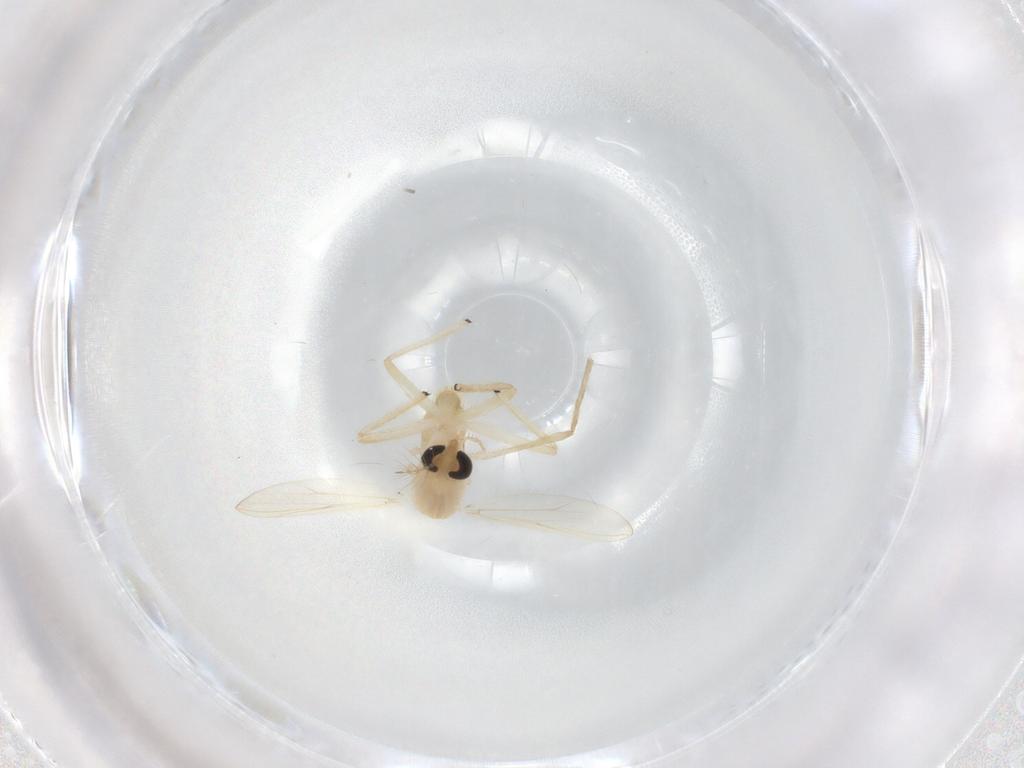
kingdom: Animalia
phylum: Arthropoda
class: Insecta
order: Diptera
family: Chironomidae
